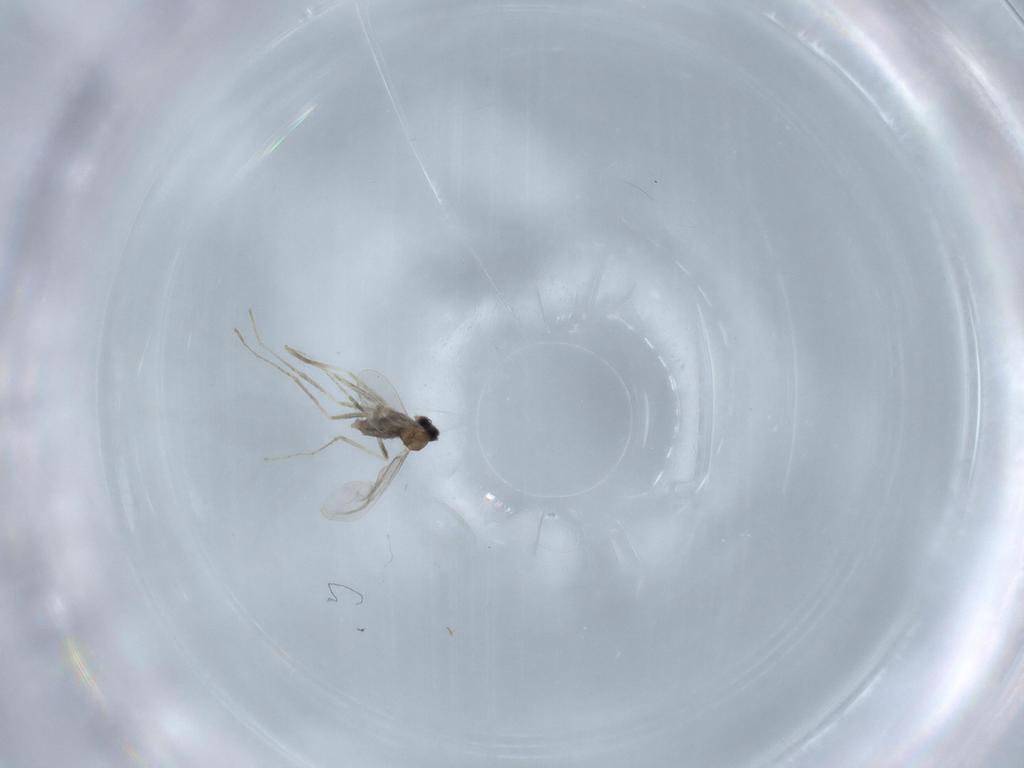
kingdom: Animalia
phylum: Arthropoda
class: Insecta
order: Diptera
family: Cecidomyiidae
